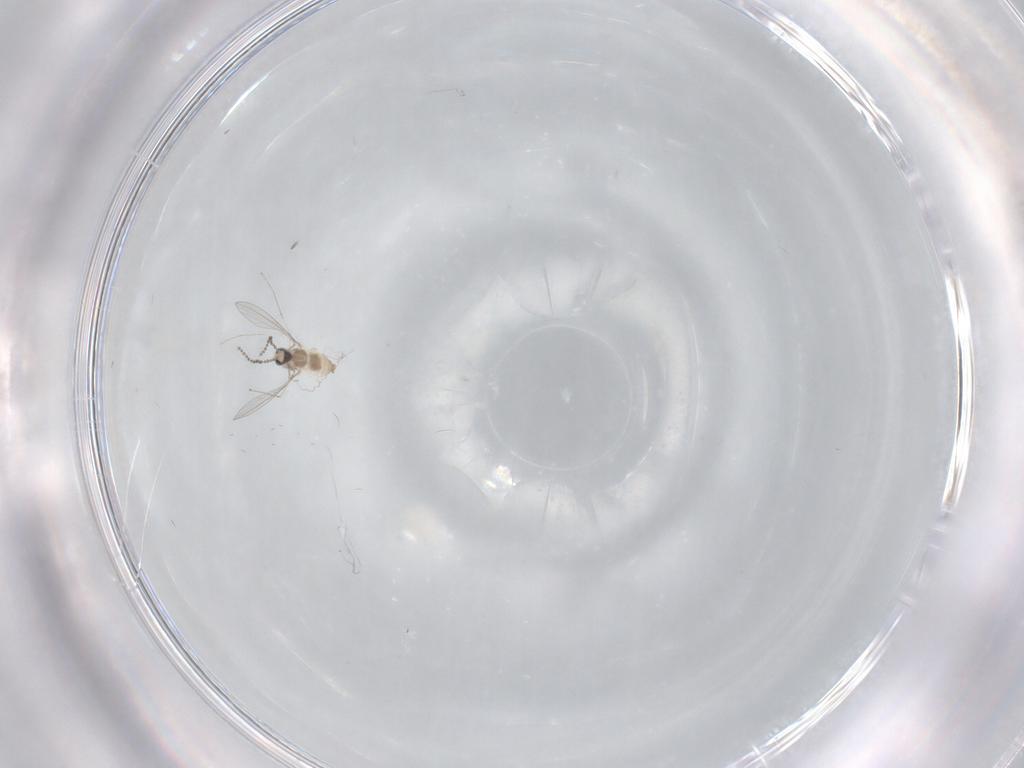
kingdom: Animalia
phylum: Arthropoda
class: Insecta
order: Diptera
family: Cecidomyiidae
